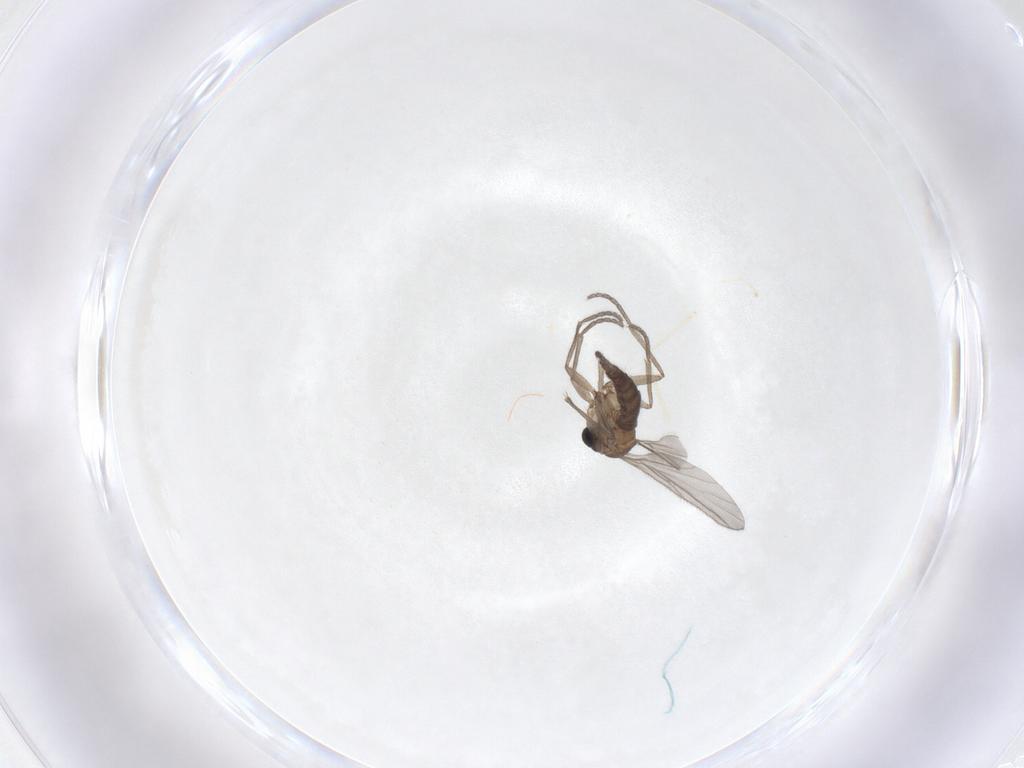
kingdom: Animalia
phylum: Arthropoda
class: Insecta
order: Diptera
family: Sciaridae
